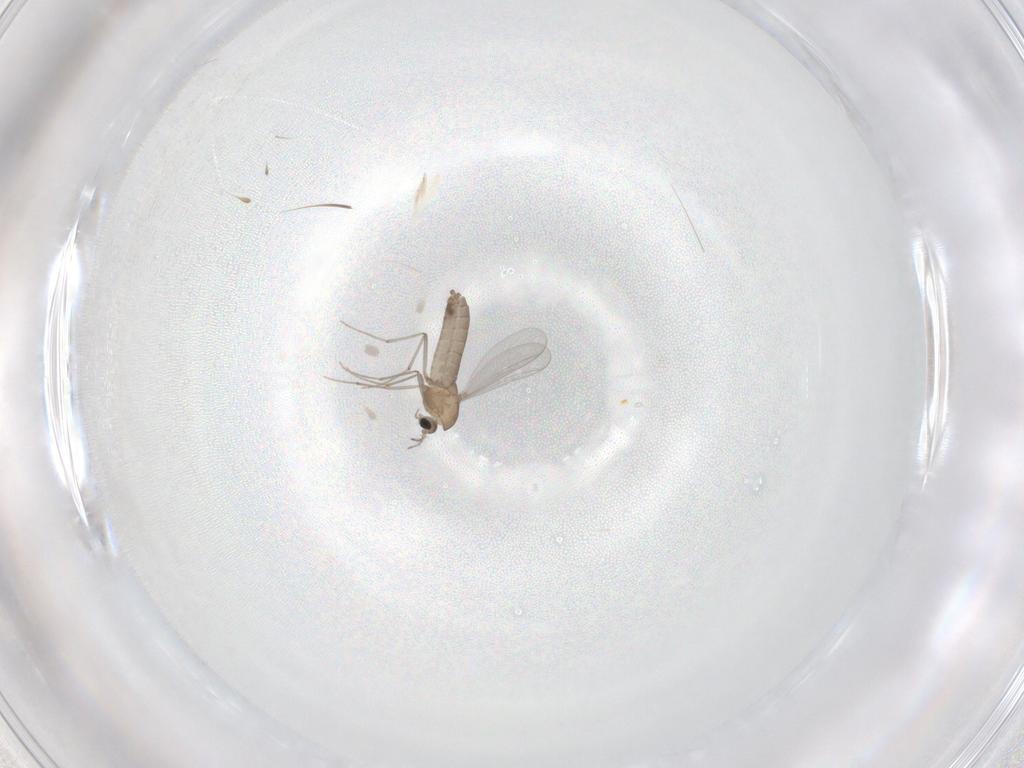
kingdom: Animalia
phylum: Arthropoda
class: Insecta
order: Diptera
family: Chironomidae
